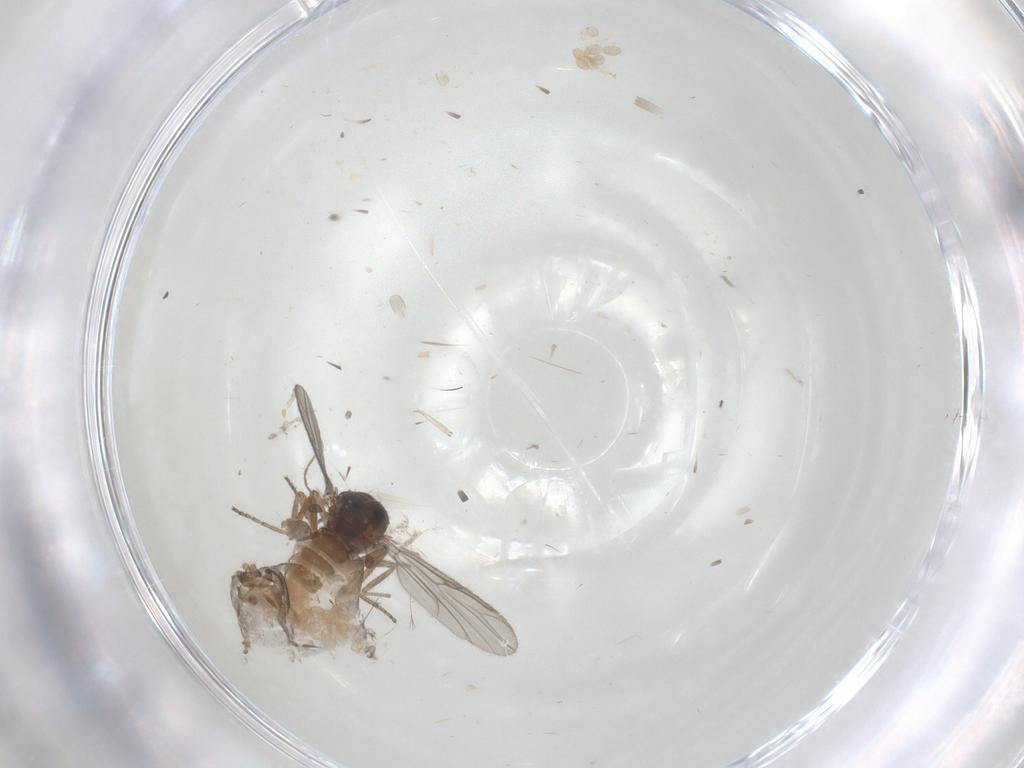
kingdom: Animalia
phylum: Arthropoda
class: Insecta
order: Diptera
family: Ceratopogonidae
